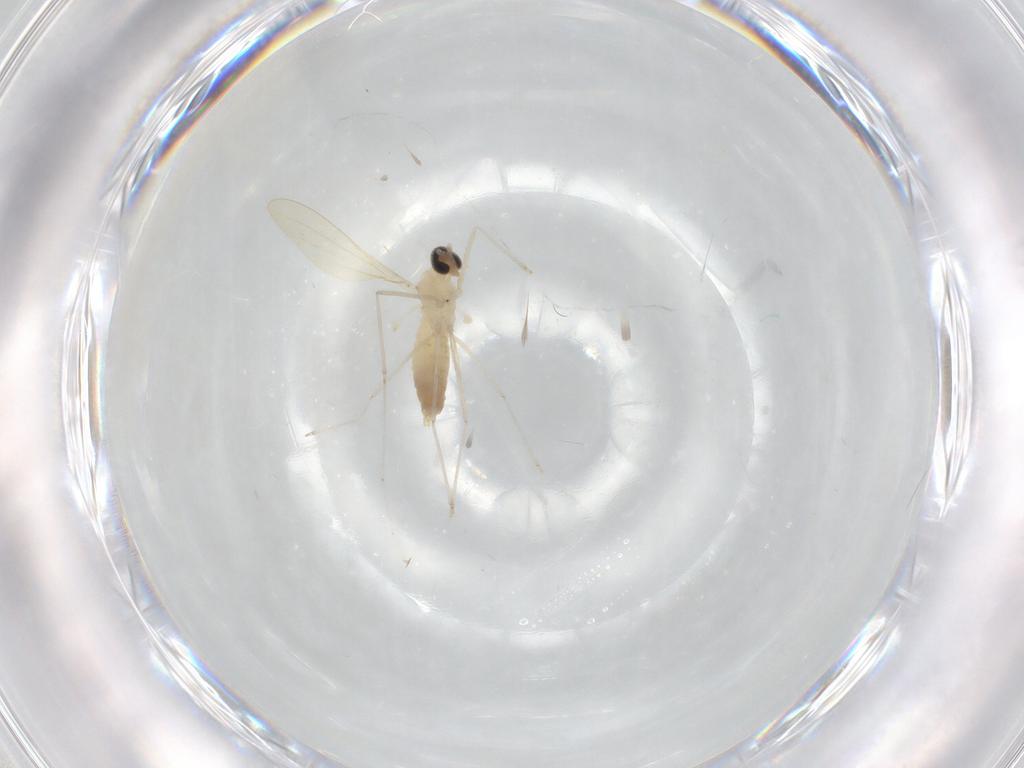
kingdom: Animalia
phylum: Arthropoda
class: Insecta
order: Diptera
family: Cecidomyiidae
